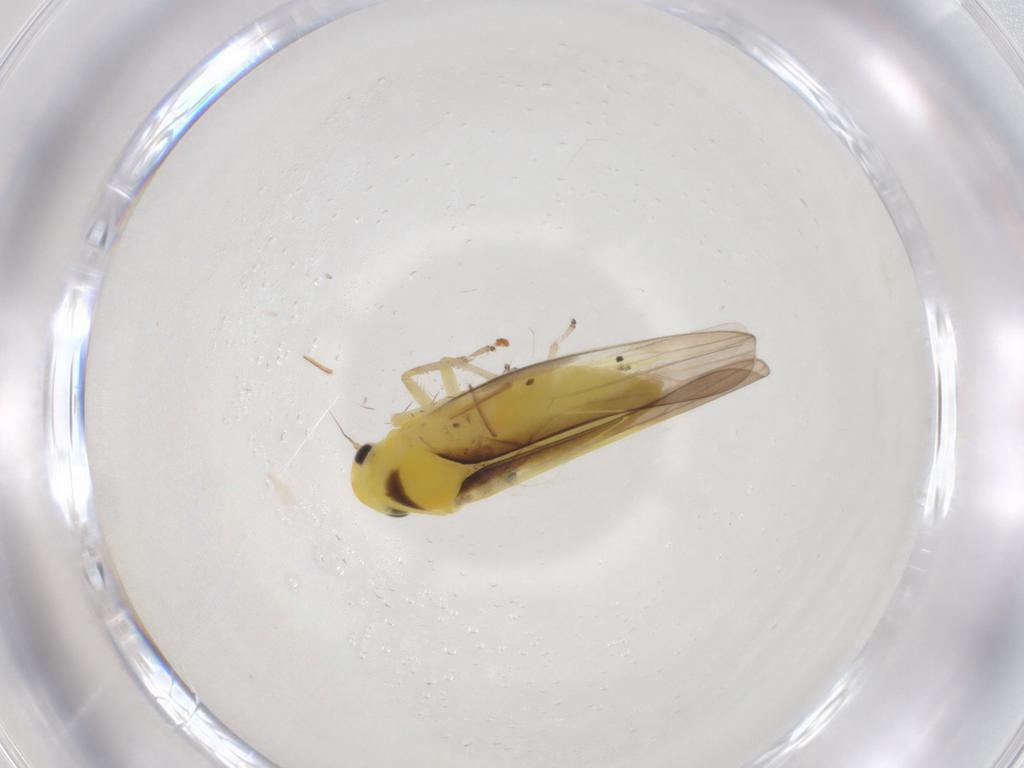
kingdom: Animalia
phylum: Arthropoda
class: Insecta
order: Hemiptera
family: Cicadellidae
